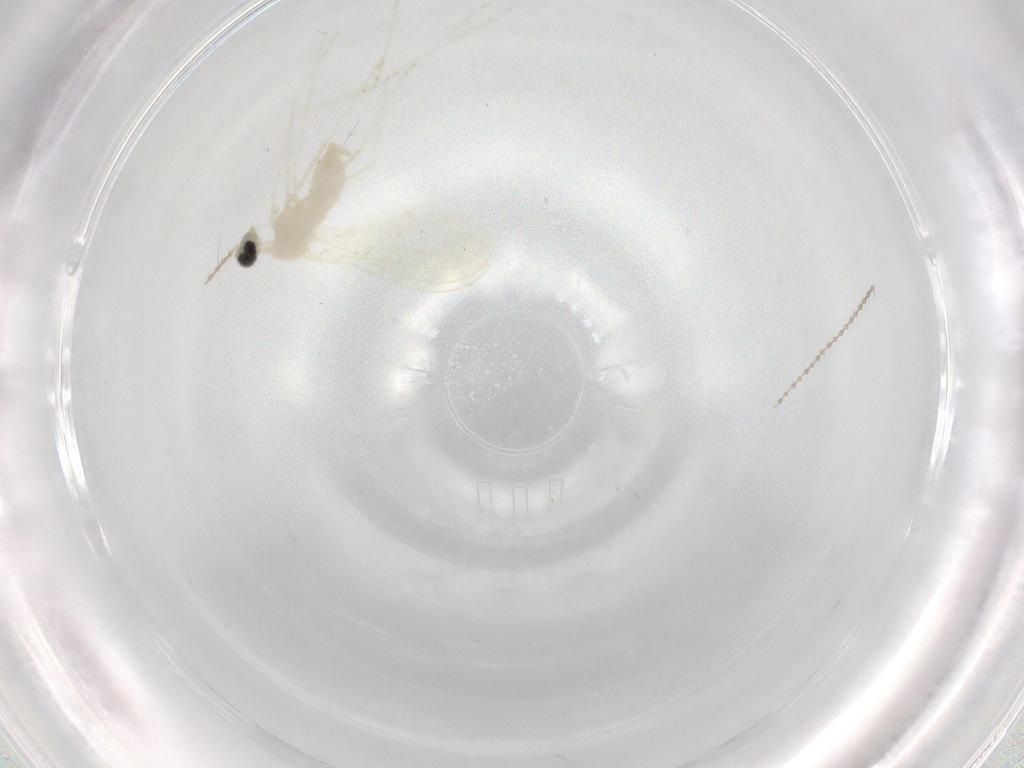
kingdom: Animalia
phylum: Arthropoda
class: Insecta
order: Diptera
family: Cecidomyiidae
